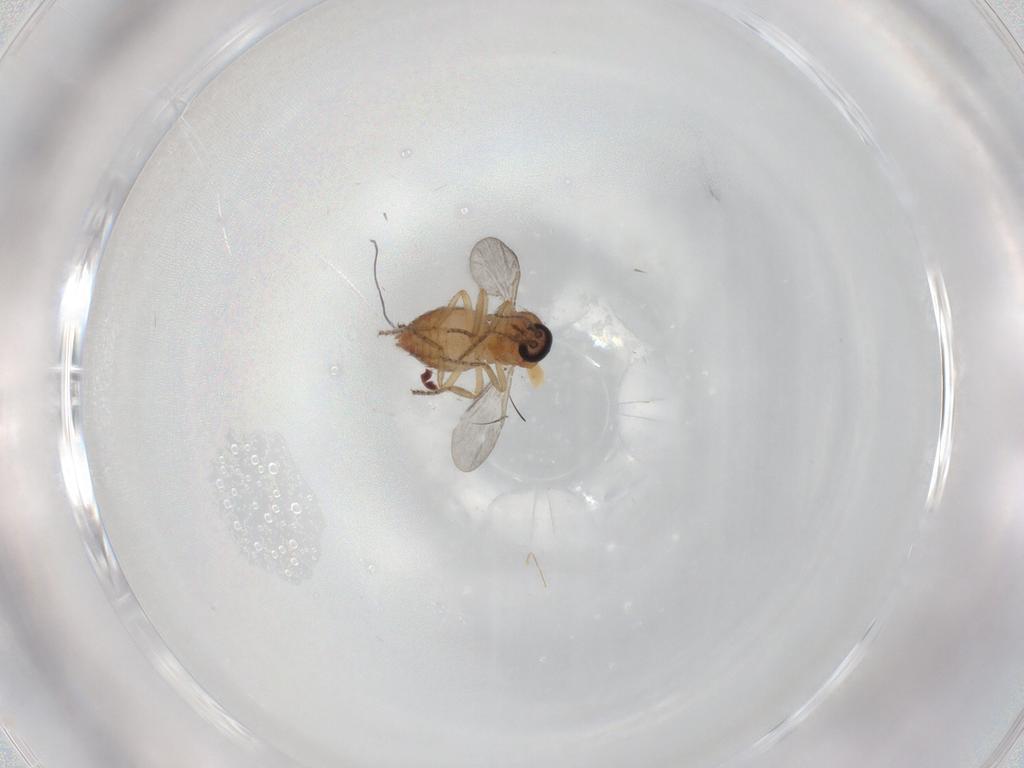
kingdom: Animalia
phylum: Arthropoda
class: Insecta
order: Diptera
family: Ceratopogonidae
